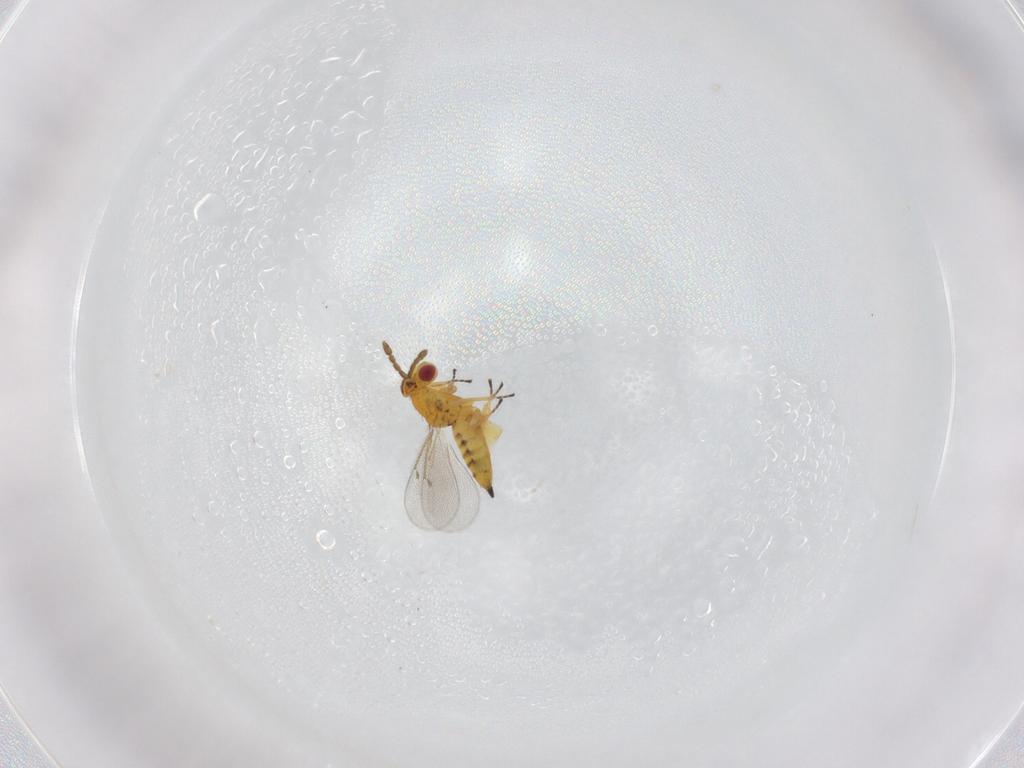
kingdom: Animalia
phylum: Arthropoda
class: Insecta
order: Hymenoptera
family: Eulophidae
